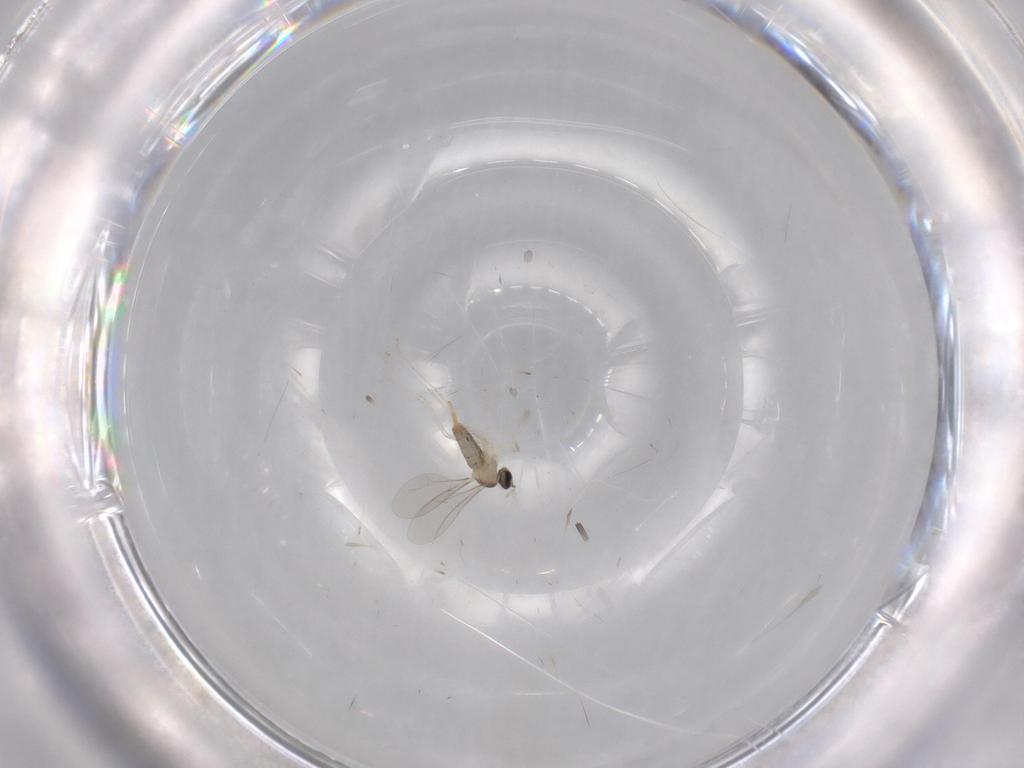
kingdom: Animalia
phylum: Arthropoda
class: Insecta
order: Diptera
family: Cecidomyiidae
